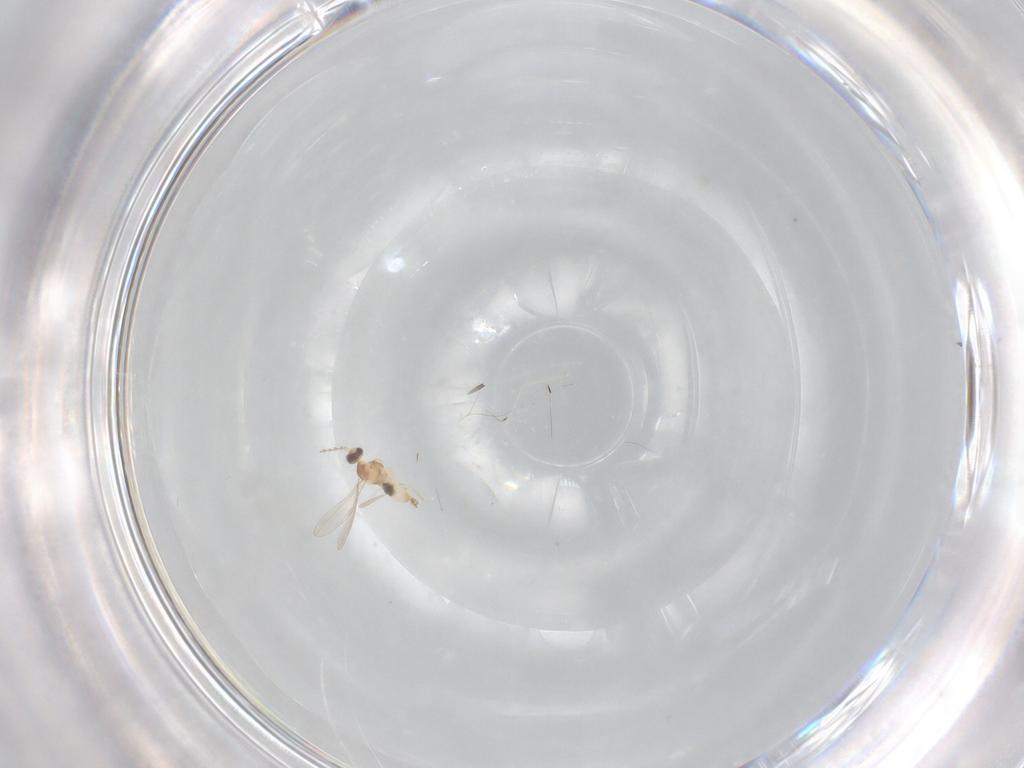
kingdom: Animalia
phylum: Arthropoda
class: Insecta
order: Diptera
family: Cecidomyiidae
